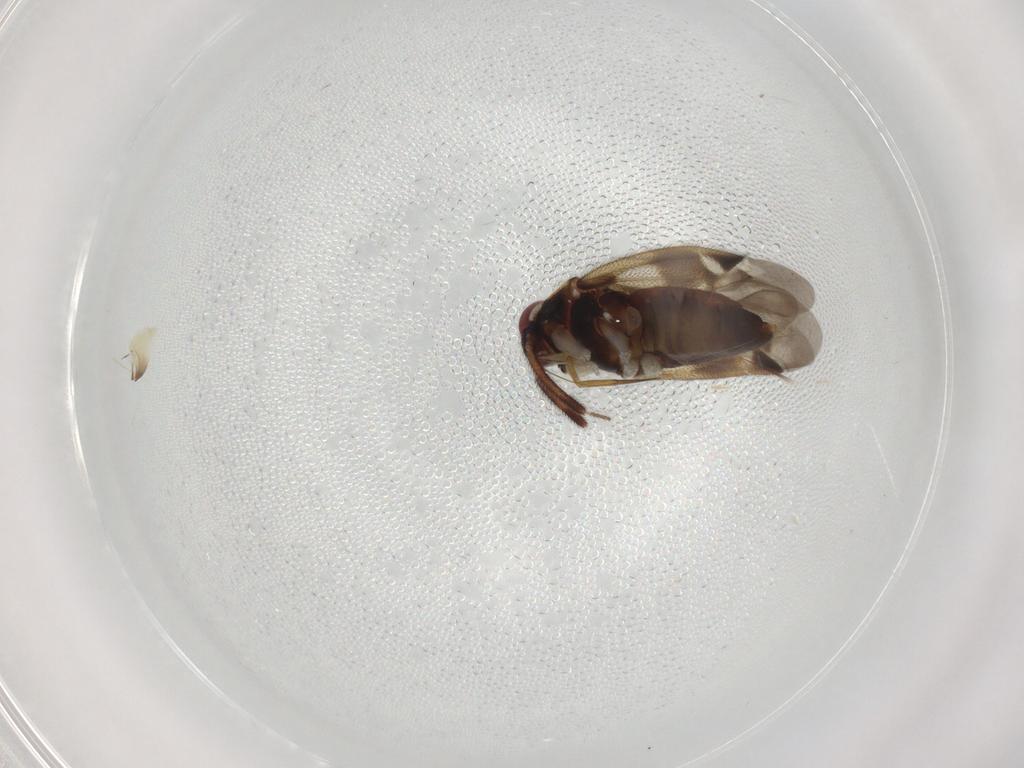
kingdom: Animalia
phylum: Arthropoda
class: Insecta
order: Hemiptera
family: Miridae
